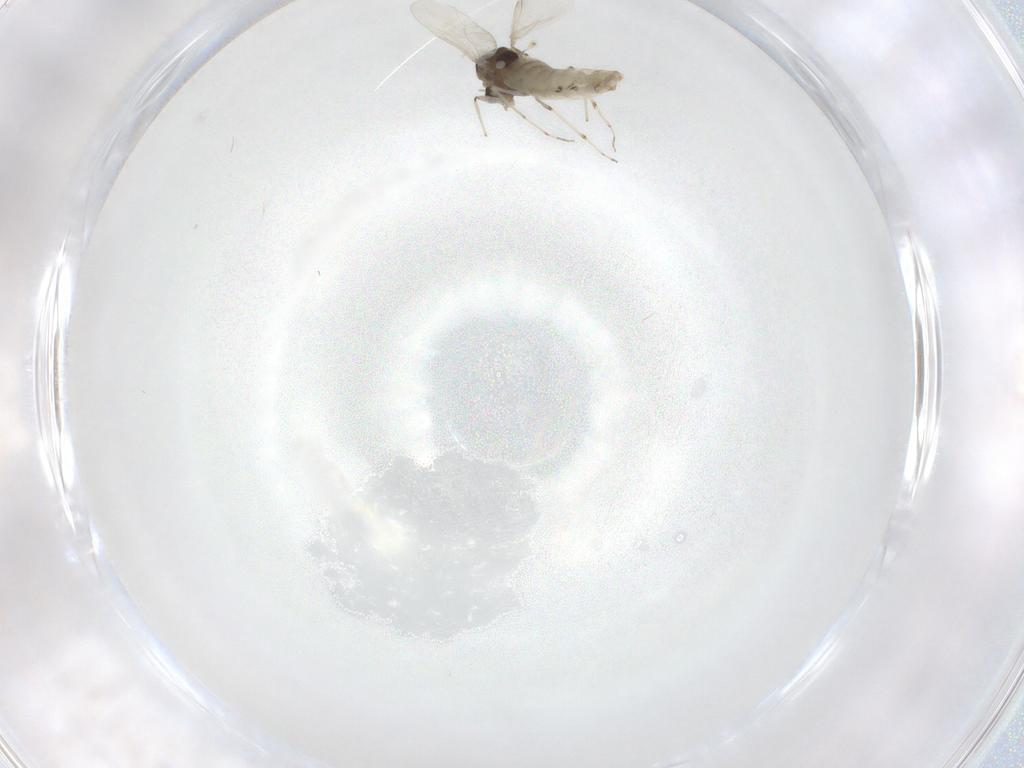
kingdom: Animalia
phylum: Arthropoda
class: Insecta
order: Diptera
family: Chironomidae
